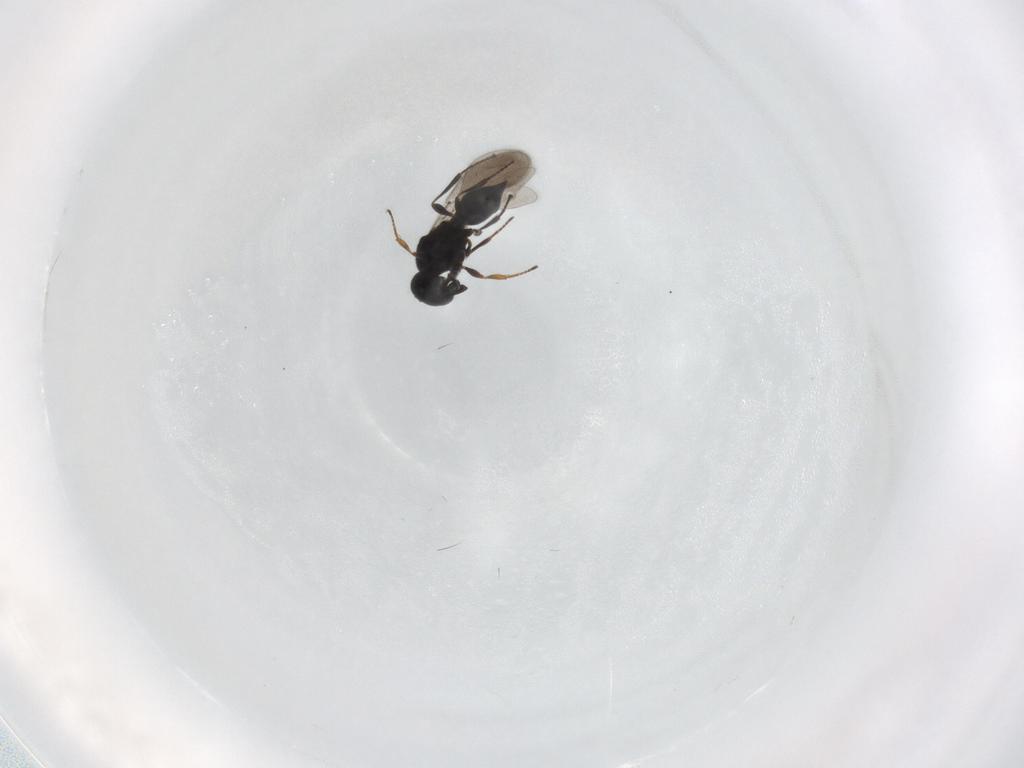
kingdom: Animalia
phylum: Arthropoda
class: Insecta
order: Hymenoptera
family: Platygastridae
